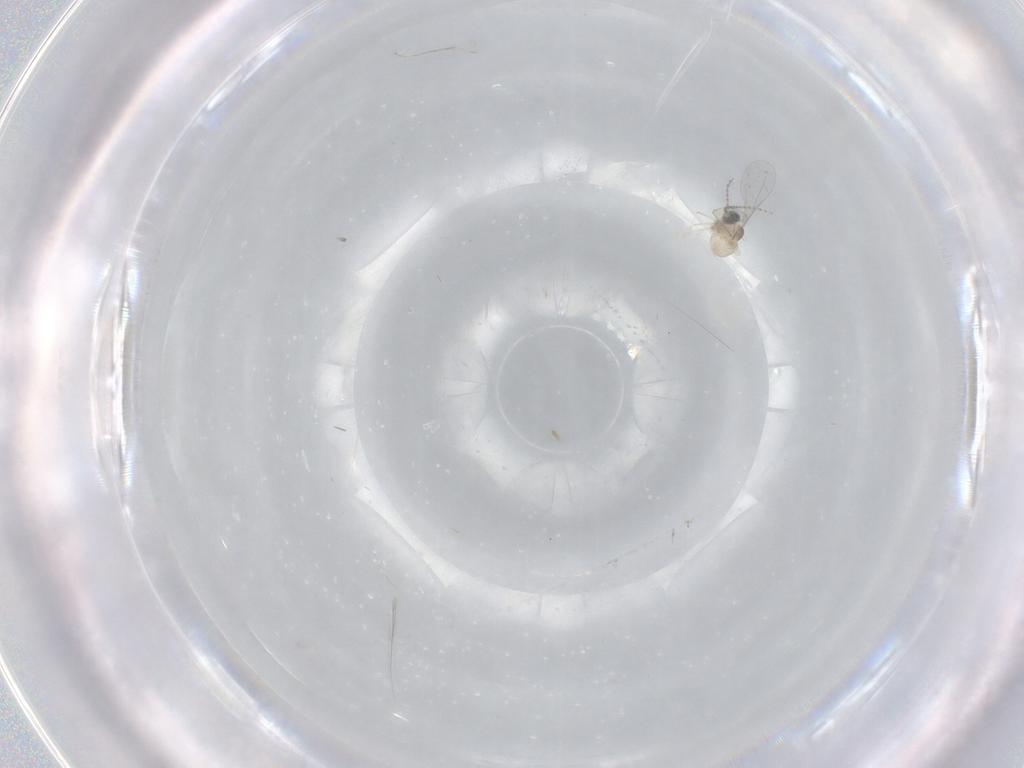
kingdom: Animalia
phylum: Arthropoda
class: Insecta
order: Diptera
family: Cecidomyiidae
